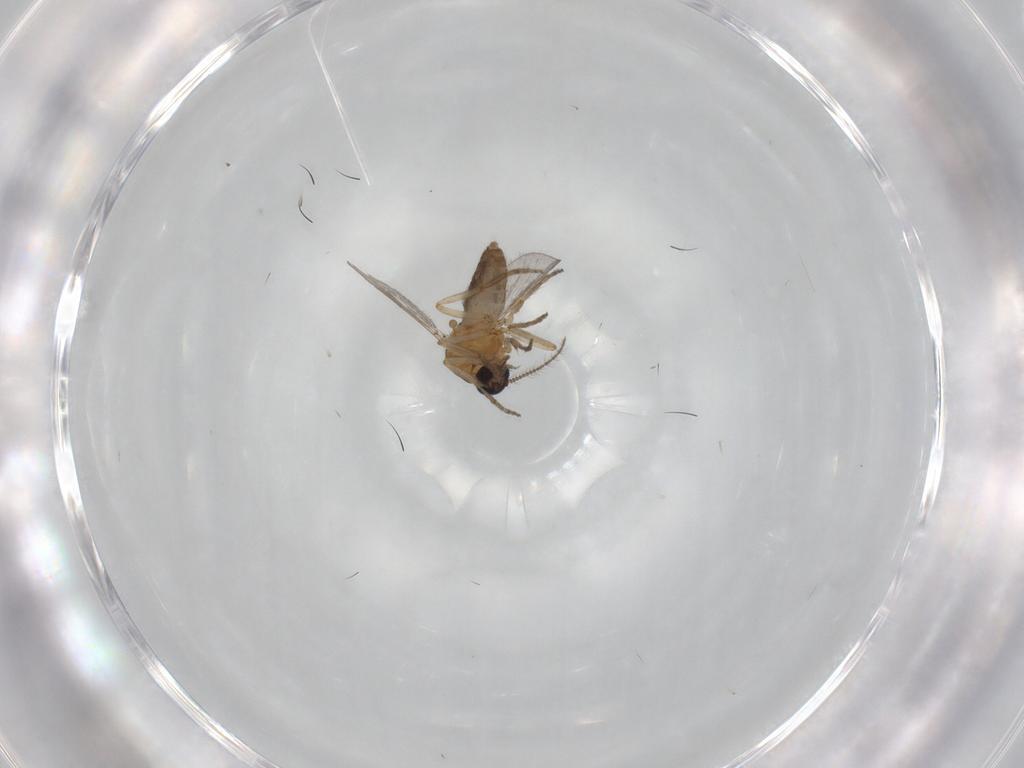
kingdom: Animalia
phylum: Arthropoda
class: Insecta
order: Diptera
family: Ceratopogonidae
